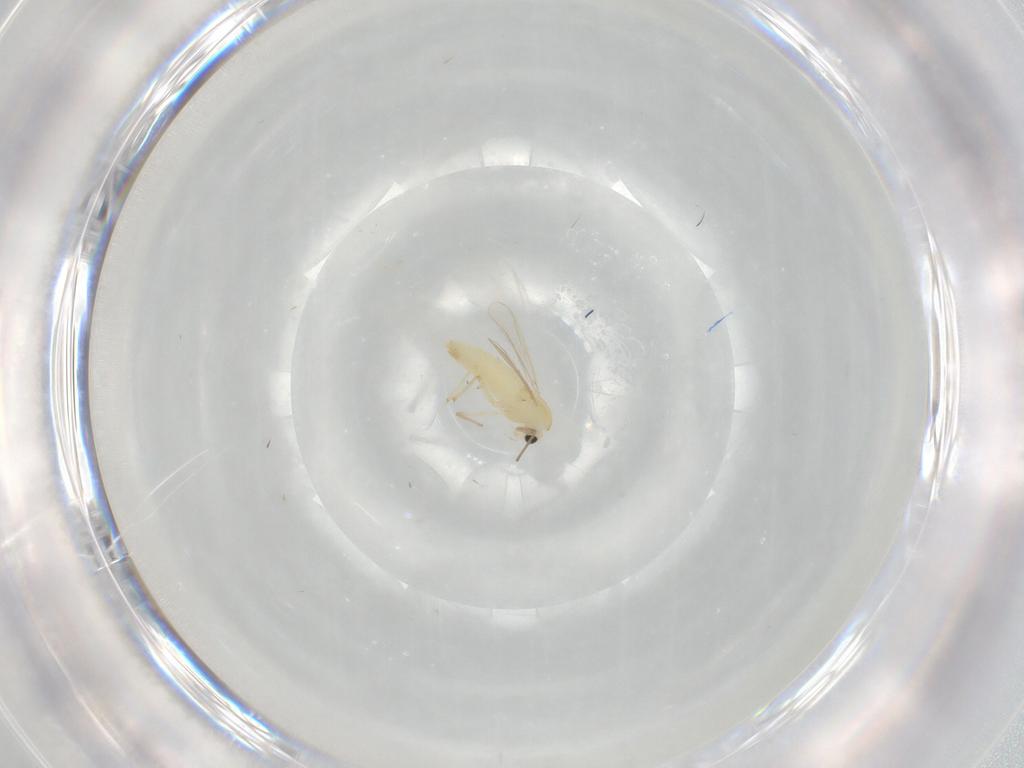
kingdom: Animalia
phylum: Arthropoda
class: Insecta
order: Diptera
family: Chironomidae
